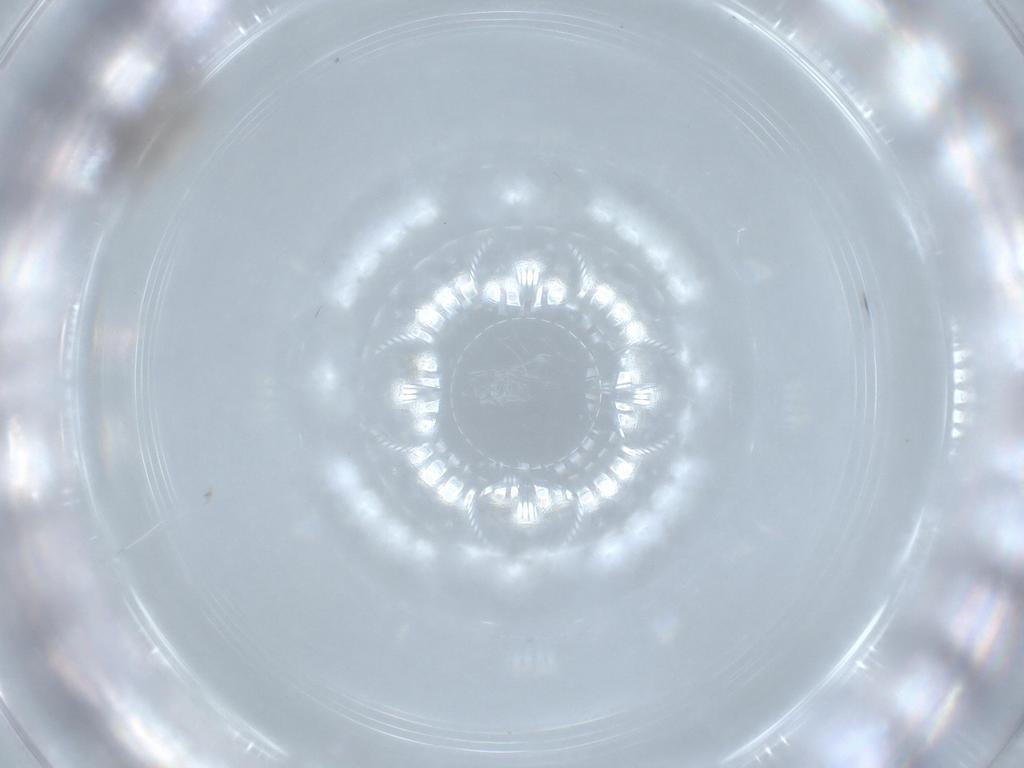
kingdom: Animalia
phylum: Arthropoda
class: Insecta
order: Hymenoptera
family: Diapriidae
